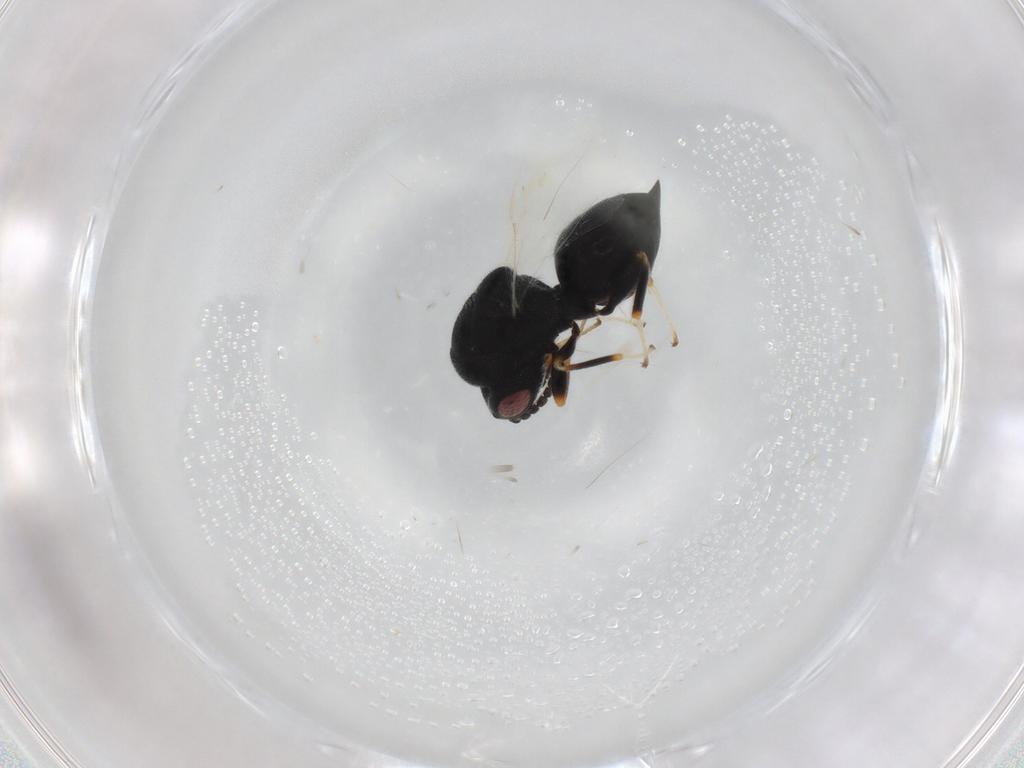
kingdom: Animalia
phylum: Arthropoda
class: Insecta
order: Hymenoptera
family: Eurytomidae
